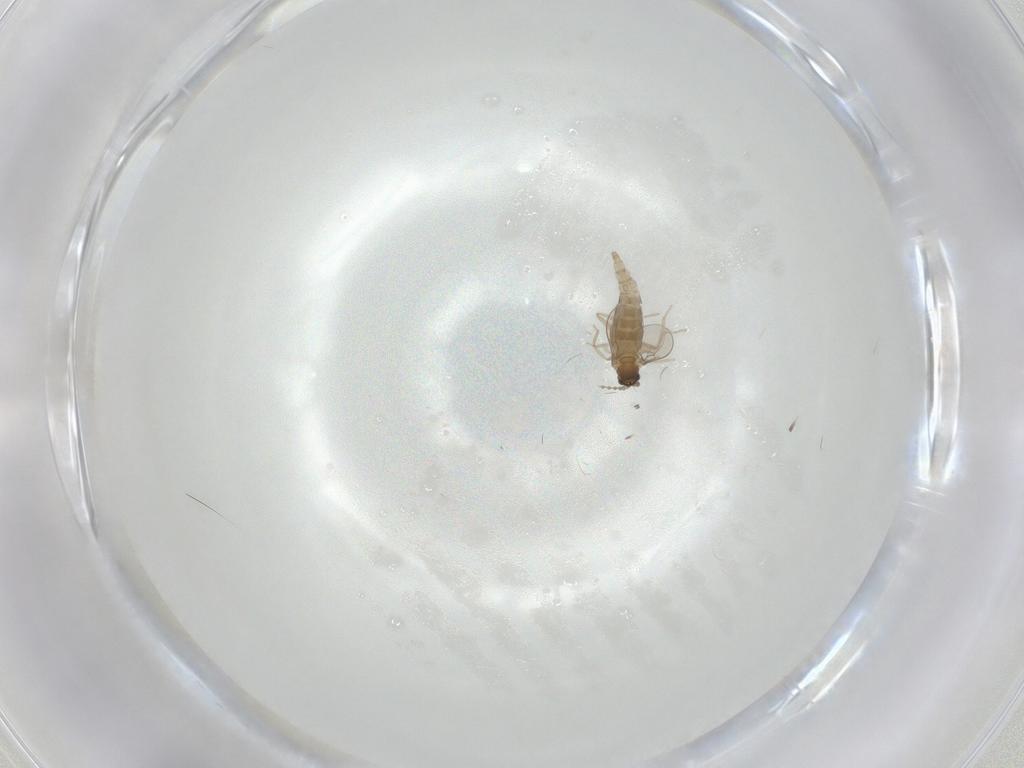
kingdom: Animalia
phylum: Arthropoda
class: Insecta
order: Diptera
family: Cecidomyiidae
